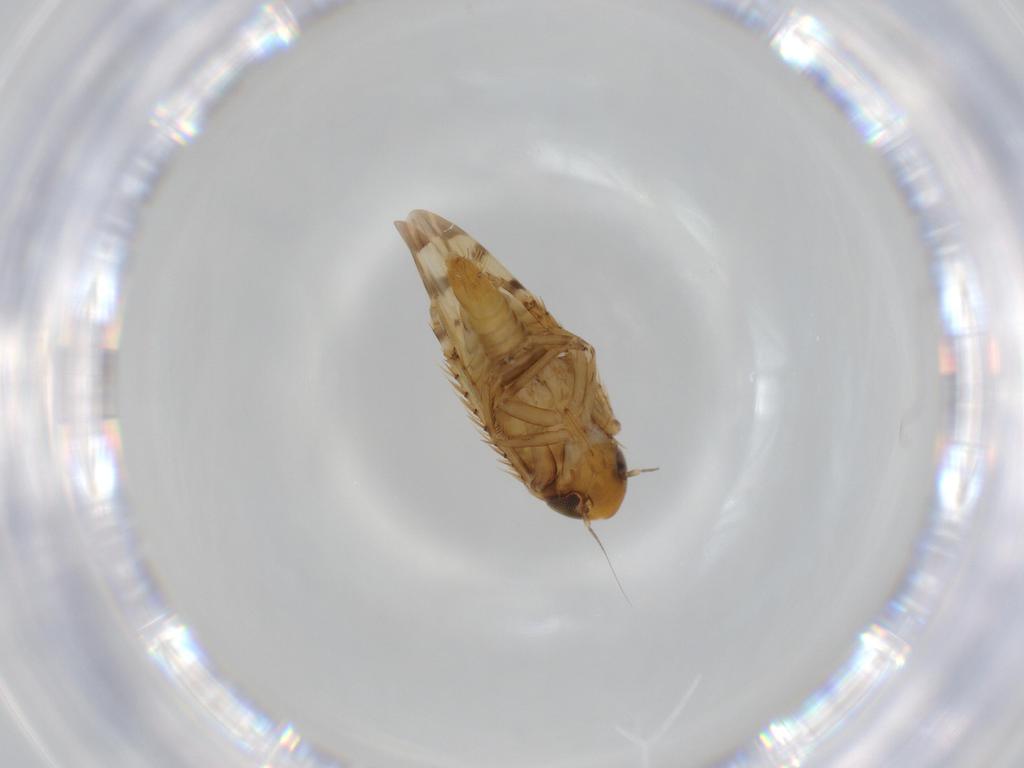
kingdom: Animalia
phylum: Arthropoda
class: Insecta
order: Hemiptera
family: Cicadellidae
